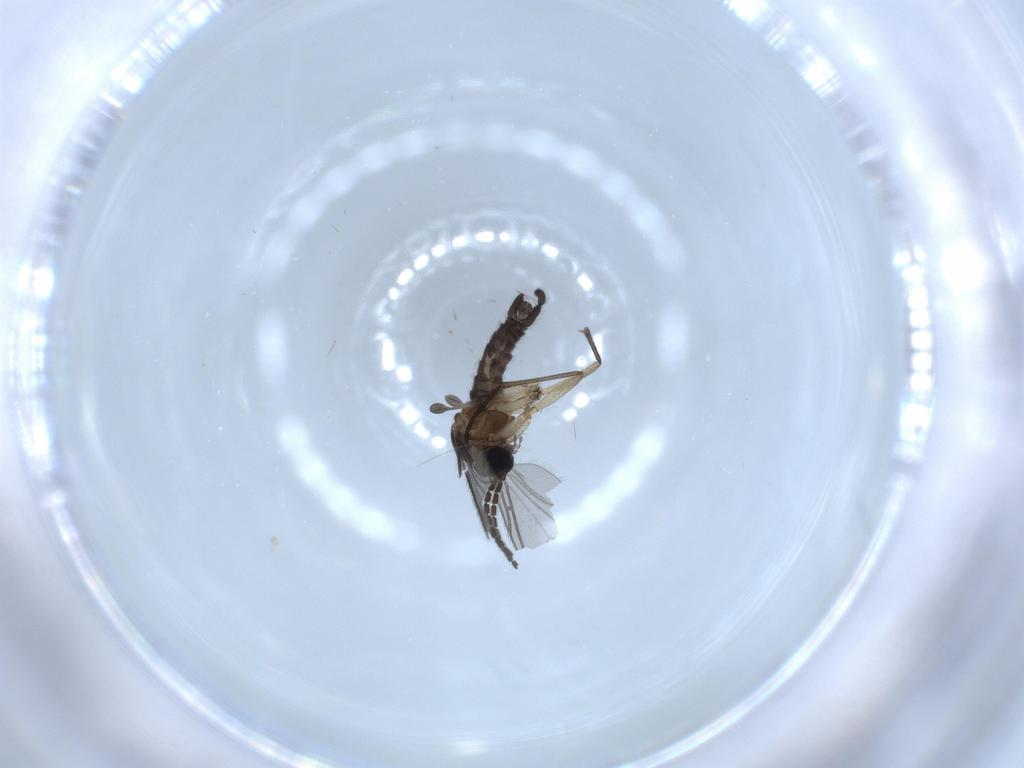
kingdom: Animalia
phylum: Arthropoda
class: Insecta
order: Diptera
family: Sciaridae
